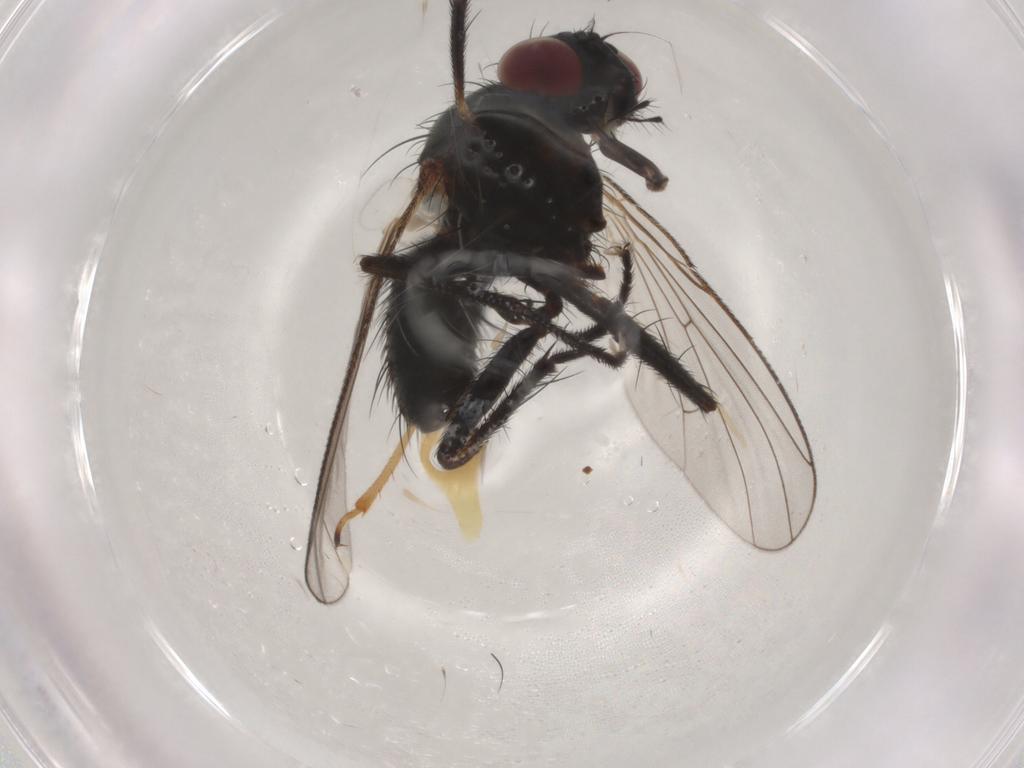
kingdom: Animalia
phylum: Arthropoda
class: Insecta
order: Diptera
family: Muscidae
